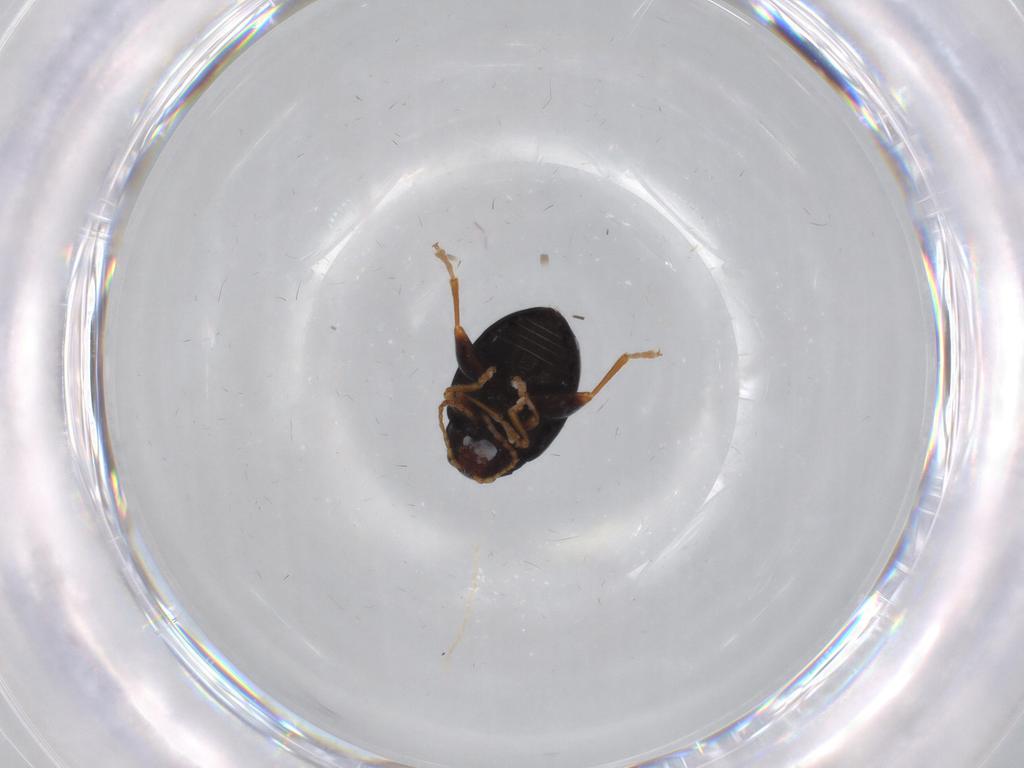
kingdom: Animalia
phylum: Arthropoda
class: Insecta
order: Coleoptera
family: Chrysomelidae
